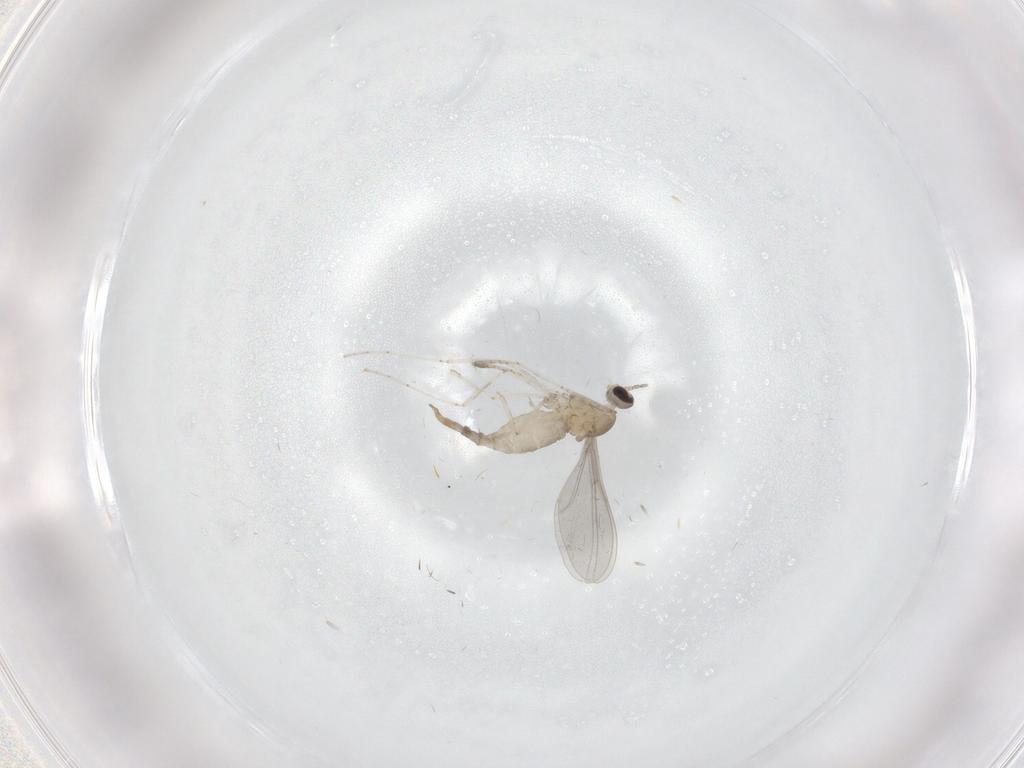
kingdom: Animalia
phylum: Arthropoda
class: Insecta
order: Diptera
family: Cecidomyiidae
